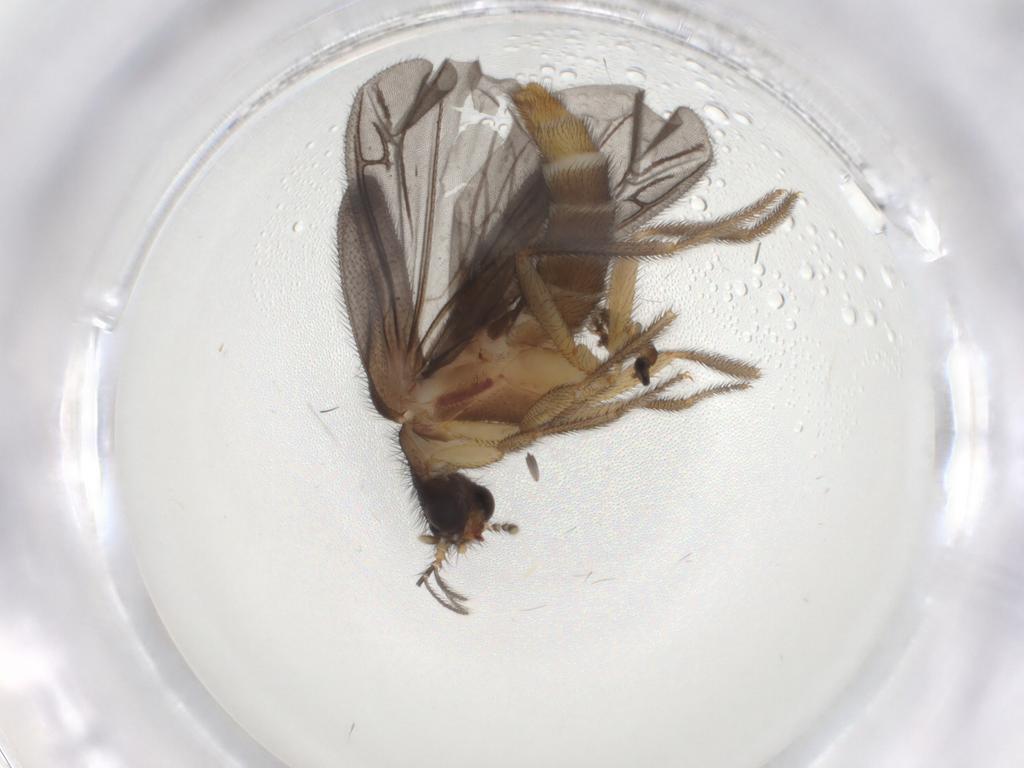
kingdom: Animalia
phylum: Arthropoda
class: Insecta
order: Diptera
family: Cecidomyiidae
